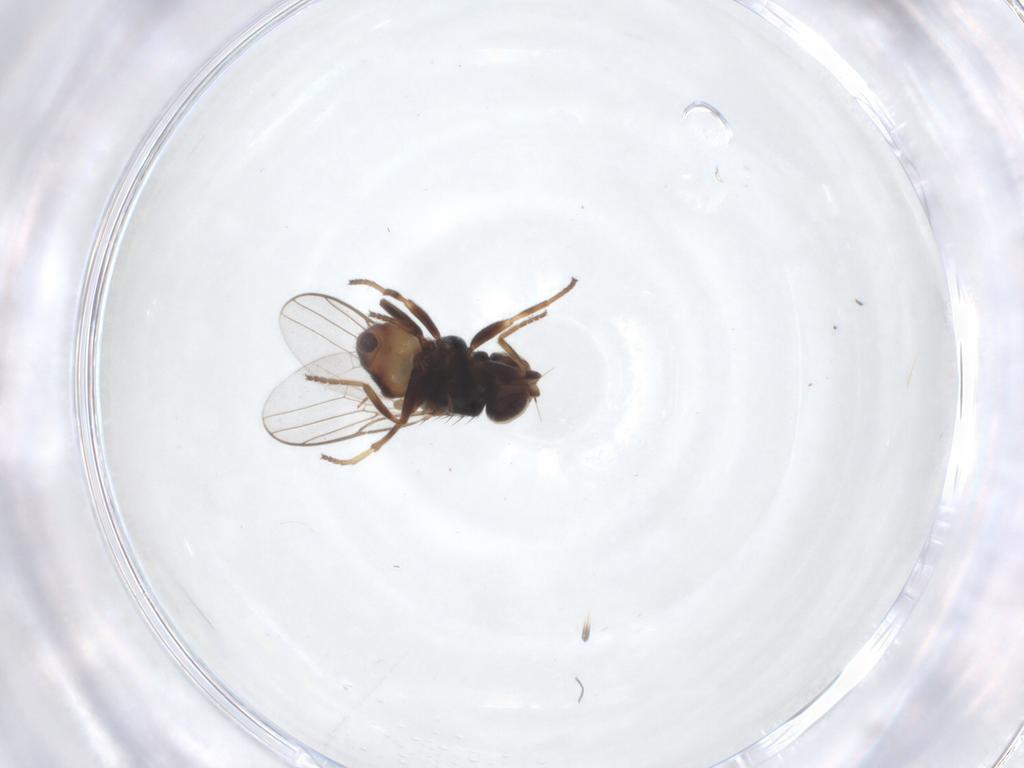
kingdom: Animalia
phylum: Arthropoda
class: Insecta
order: Diptera
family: Chloropidae
